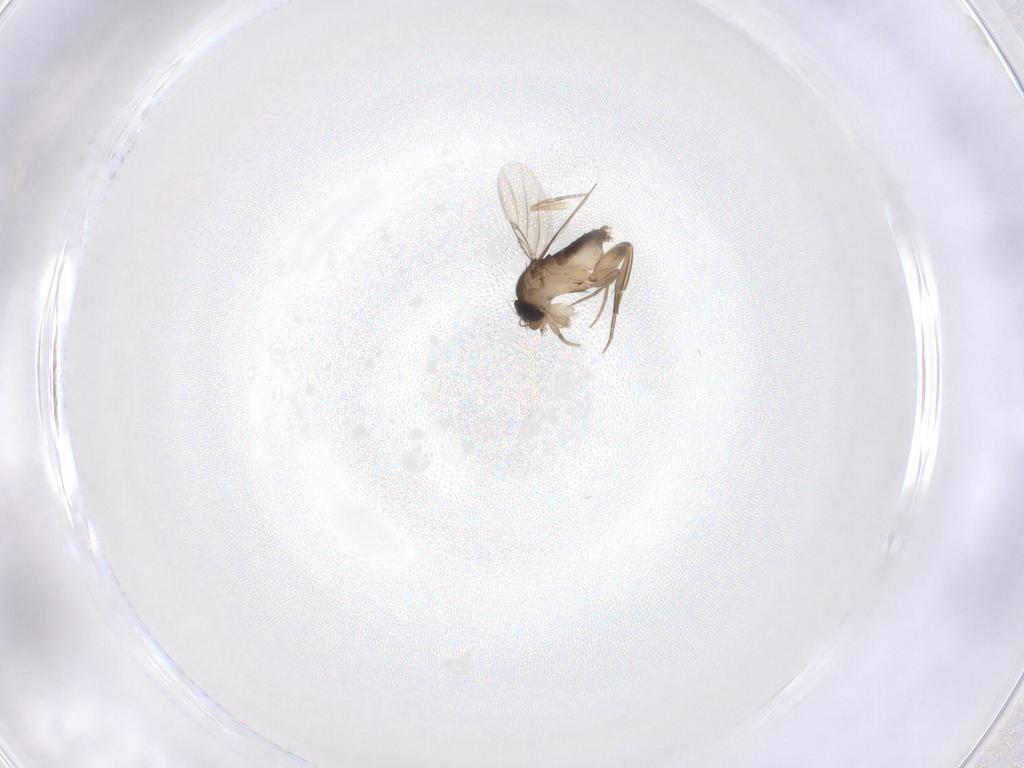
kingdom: Animalia
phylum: Arthropoda
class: Insecta
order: Diptera
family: Phoridae
